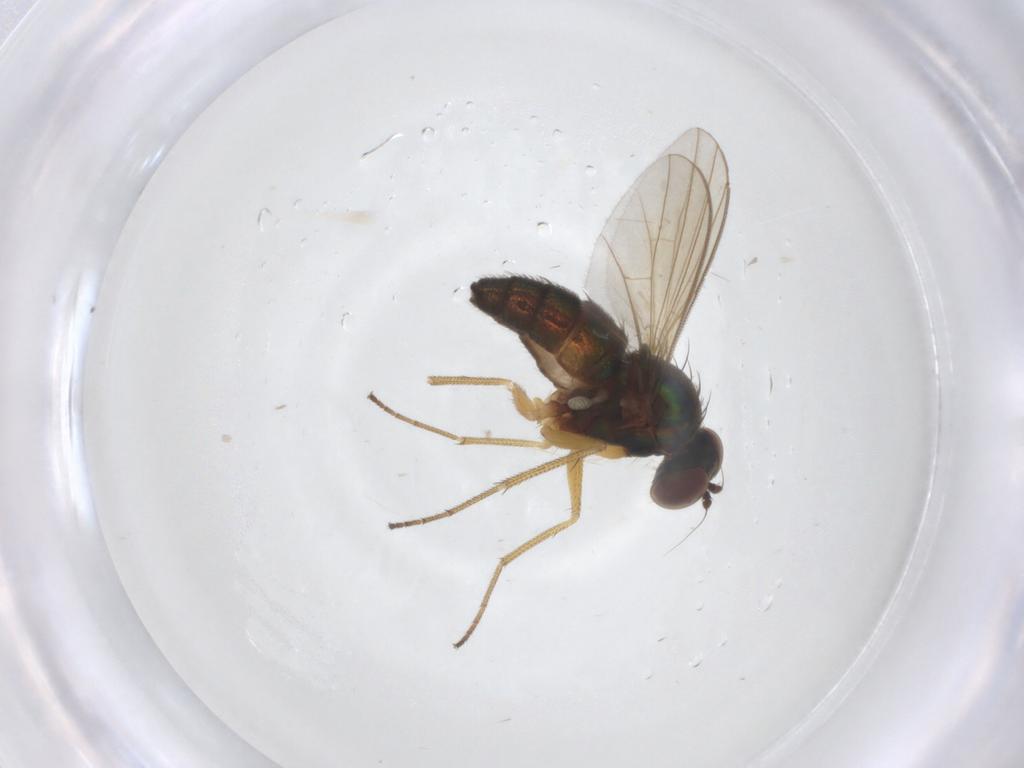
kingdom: Animalia
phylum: Arthropoda
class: Insecta
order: Diptera
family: Dolichopodidae
